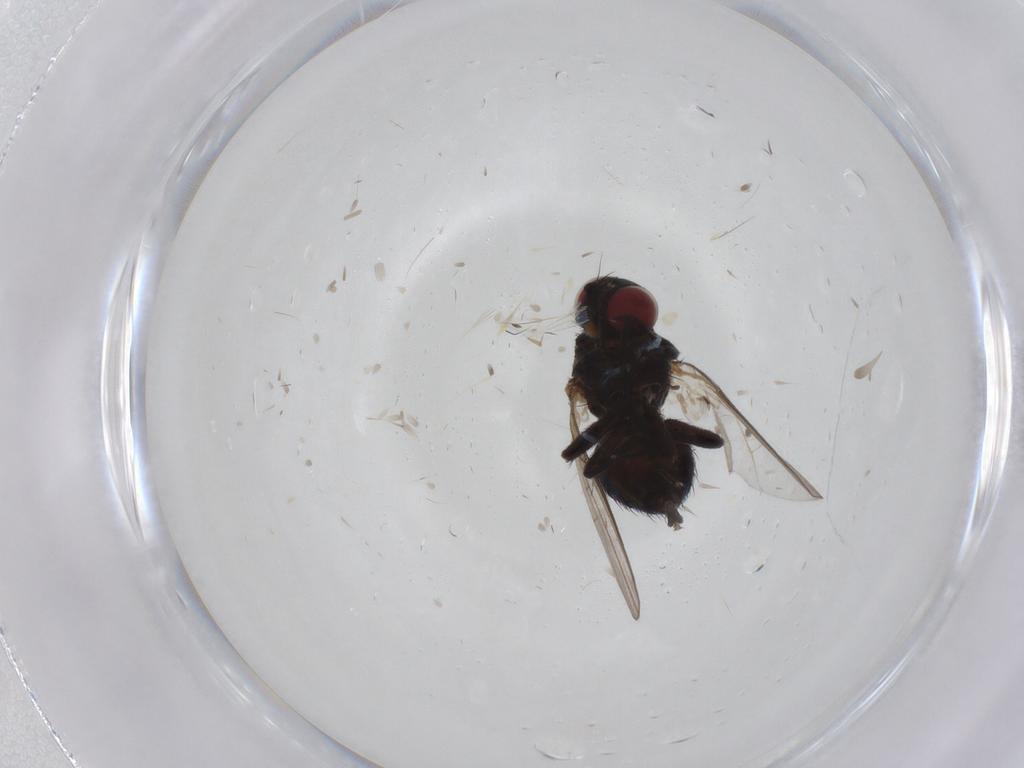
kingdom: Animalia
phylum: Arthropoda
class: Insecta
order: Diptera
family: Agromyzidae
